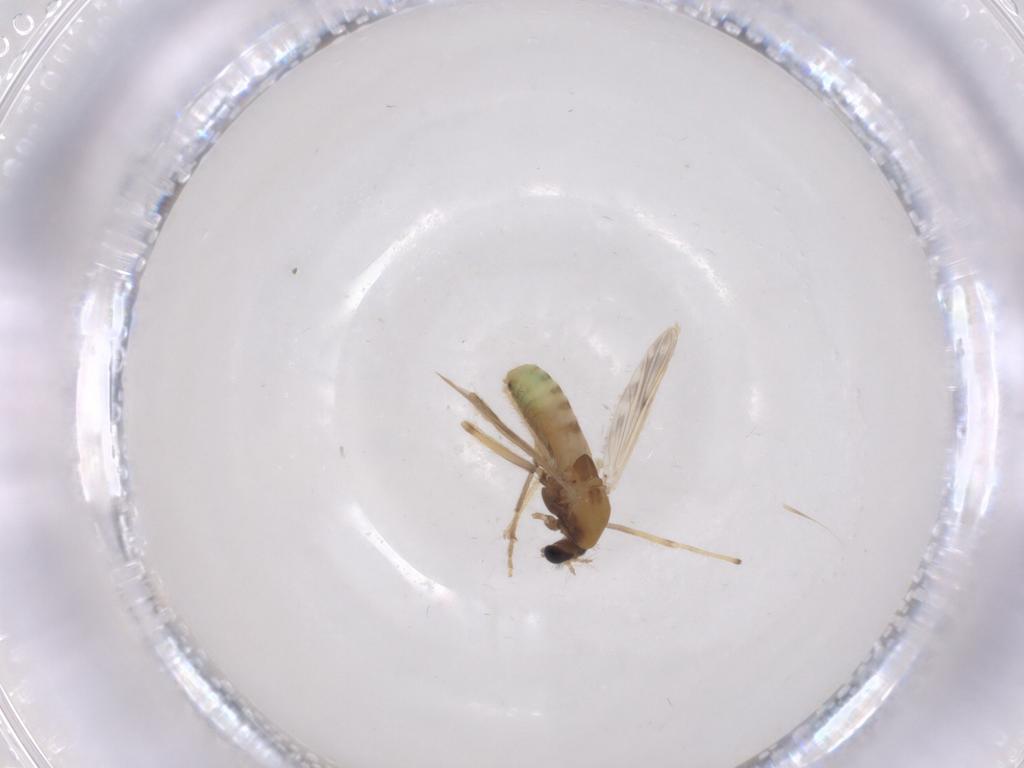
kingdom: Animalia
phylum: Arthropoda
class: Insecta
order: Diptera
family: Chironomidae
